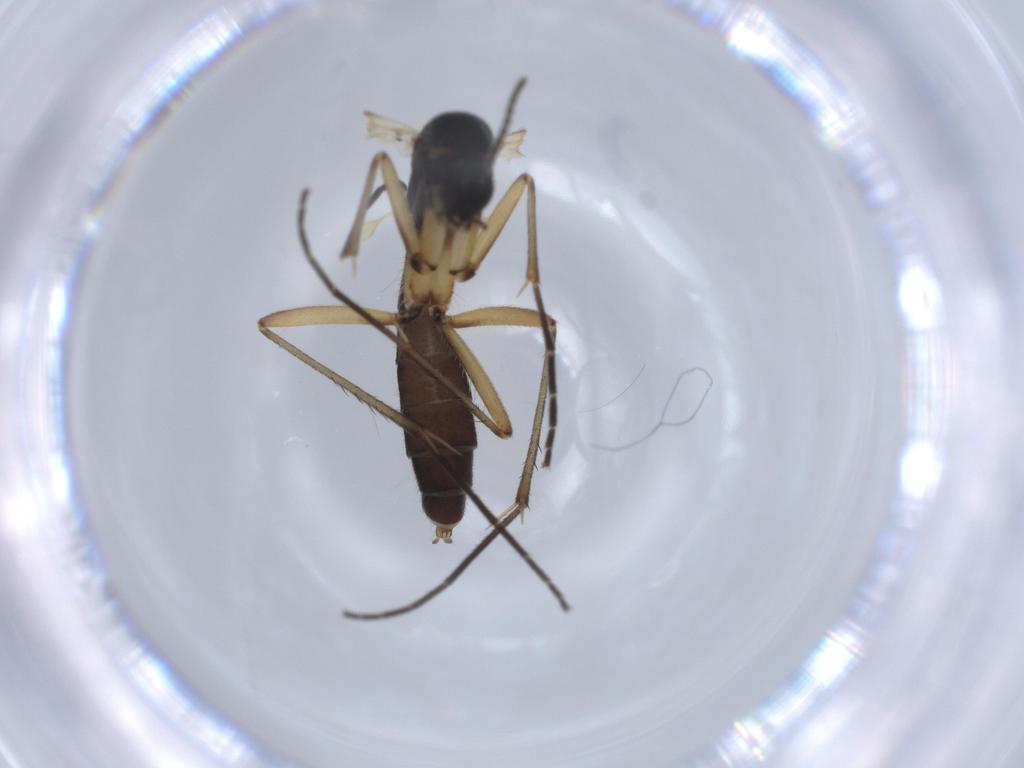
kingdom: Animalia
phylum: Arthropoda
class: Insecta
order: Diptera
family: Mycetophilidae
